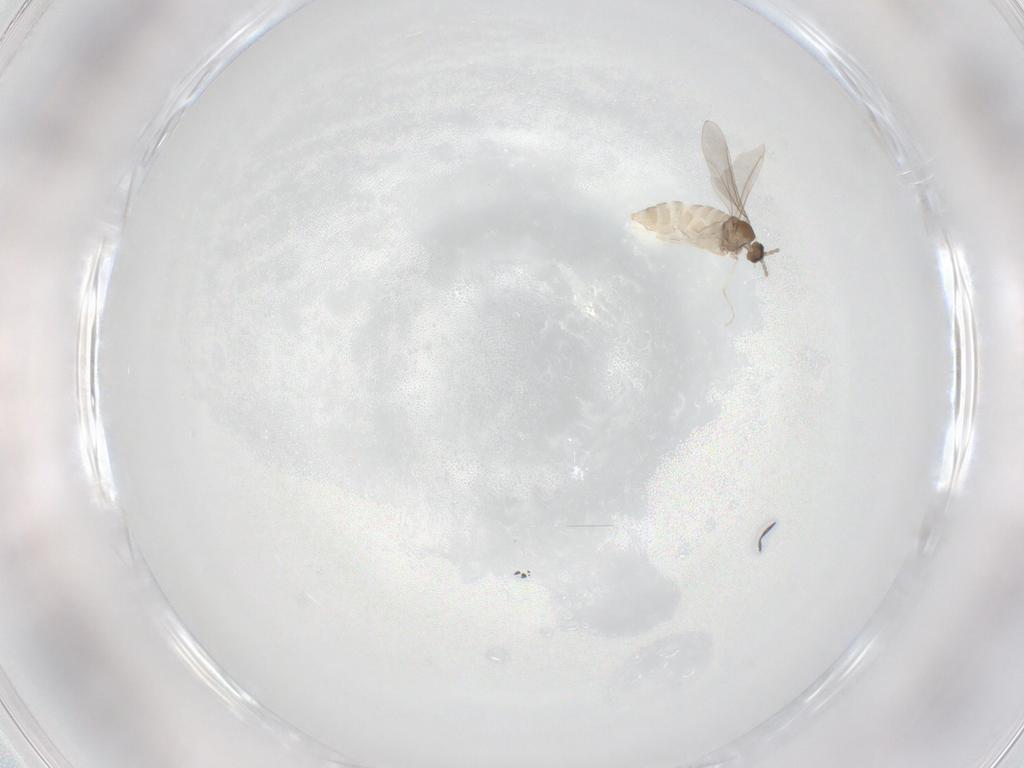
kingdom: Animalia
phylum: Arthropoda
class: Insecta
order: Diptera
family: Cecidomyiidae
